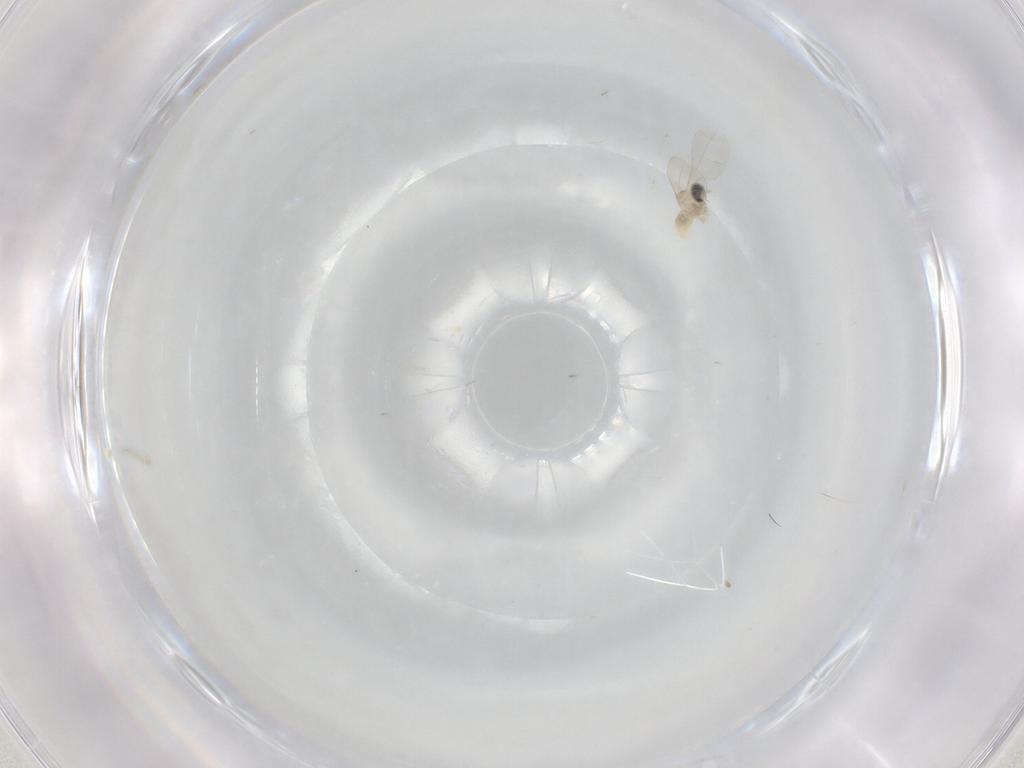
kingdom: Animalia
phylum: Arthropoda
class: Insecta
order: Diptera
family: Cecidomyiidae
